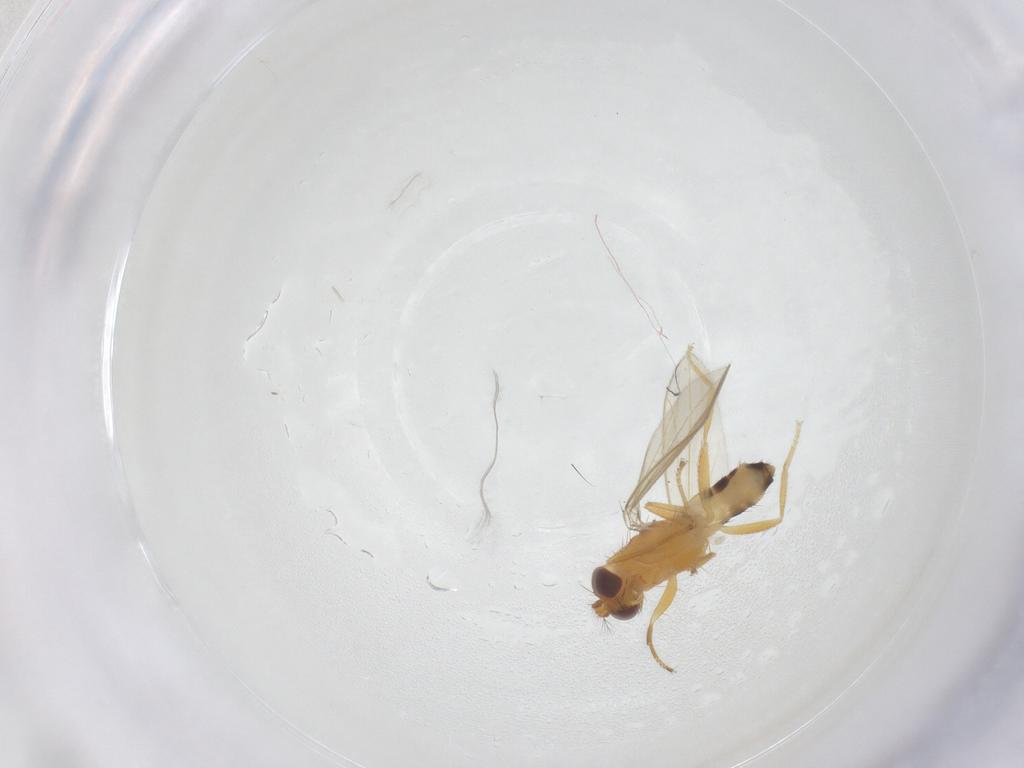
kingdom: Animalia
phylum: Arthropoda
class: Insecta
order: Diptera
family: Periscelididae
